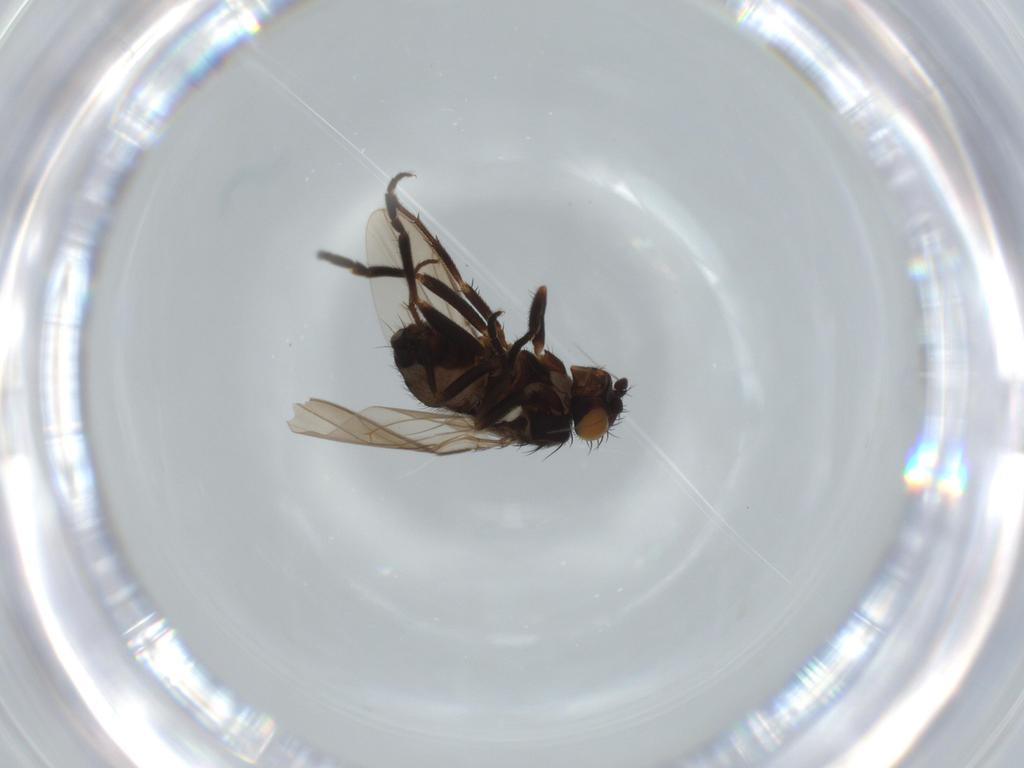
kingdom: Animalia
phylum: Arthropoda
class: Insecta
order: Diptera
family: Sphaeroceridae
